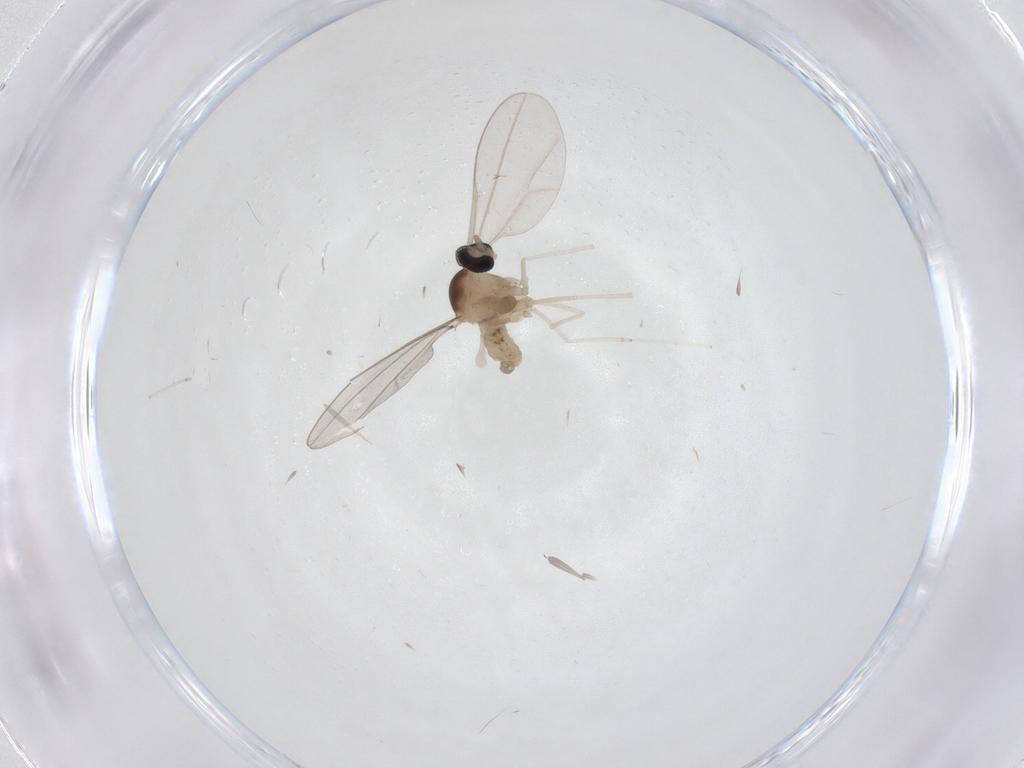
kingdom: Animalia
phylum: Arthropoda
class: Insecta
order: Diptera
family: Cecidomyiidae
